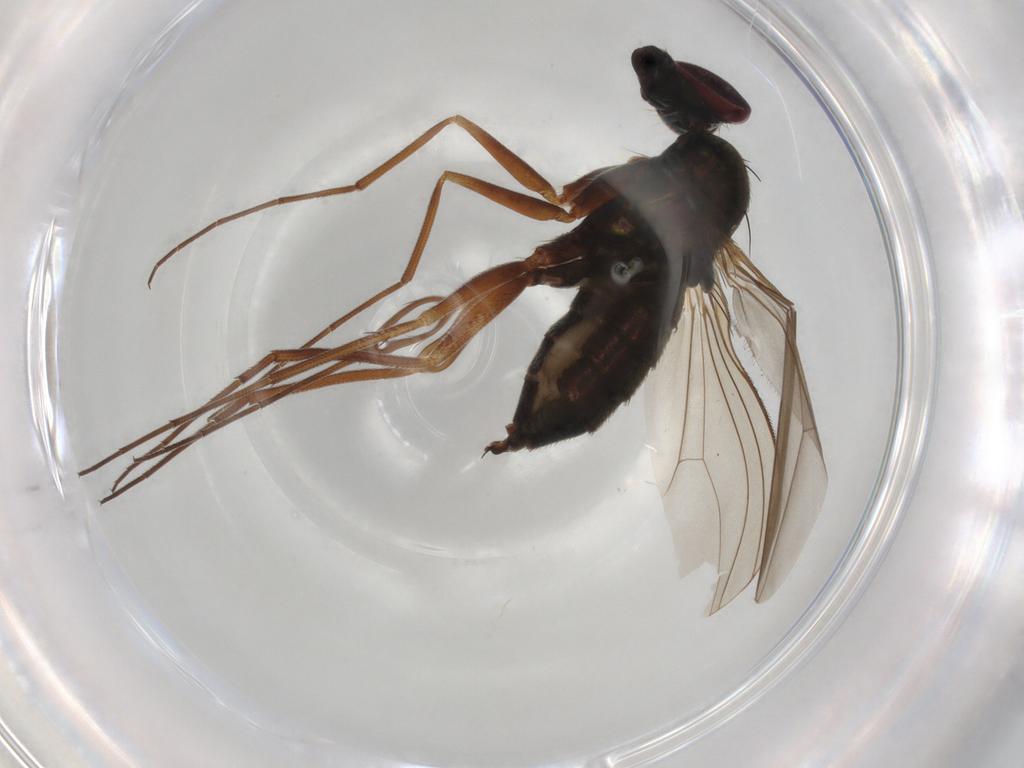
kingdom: Animalia
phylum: Arthropoda
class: Insecta
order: Diptera
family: Dolichopodidae
